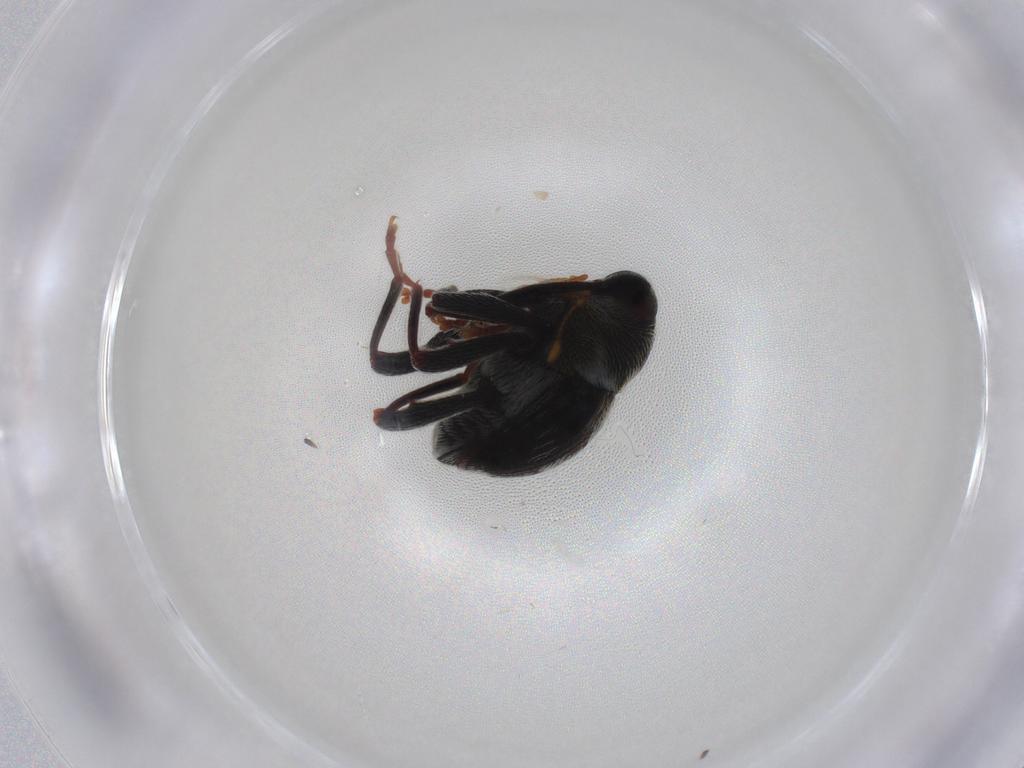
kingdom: Animalia
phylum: Arthropoda
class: Insecta
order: Coleoptera
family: Curculionidae
